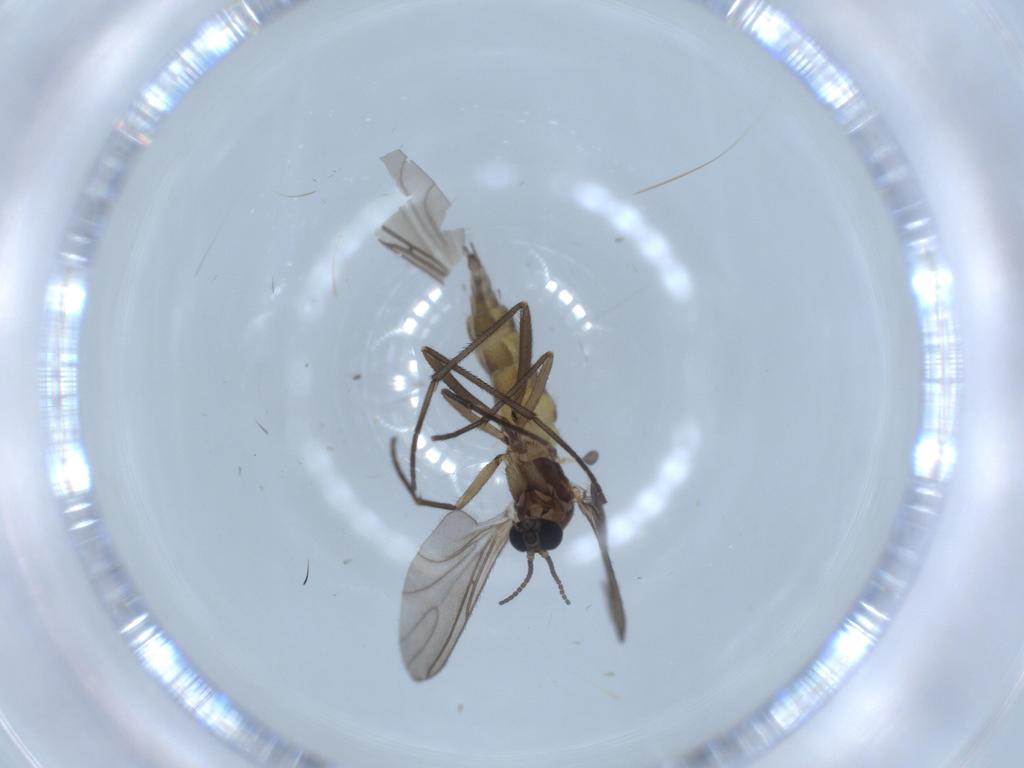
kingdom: Animalia
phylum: Arthropoda
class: Insecta
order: Diptera
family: Sciaridae
